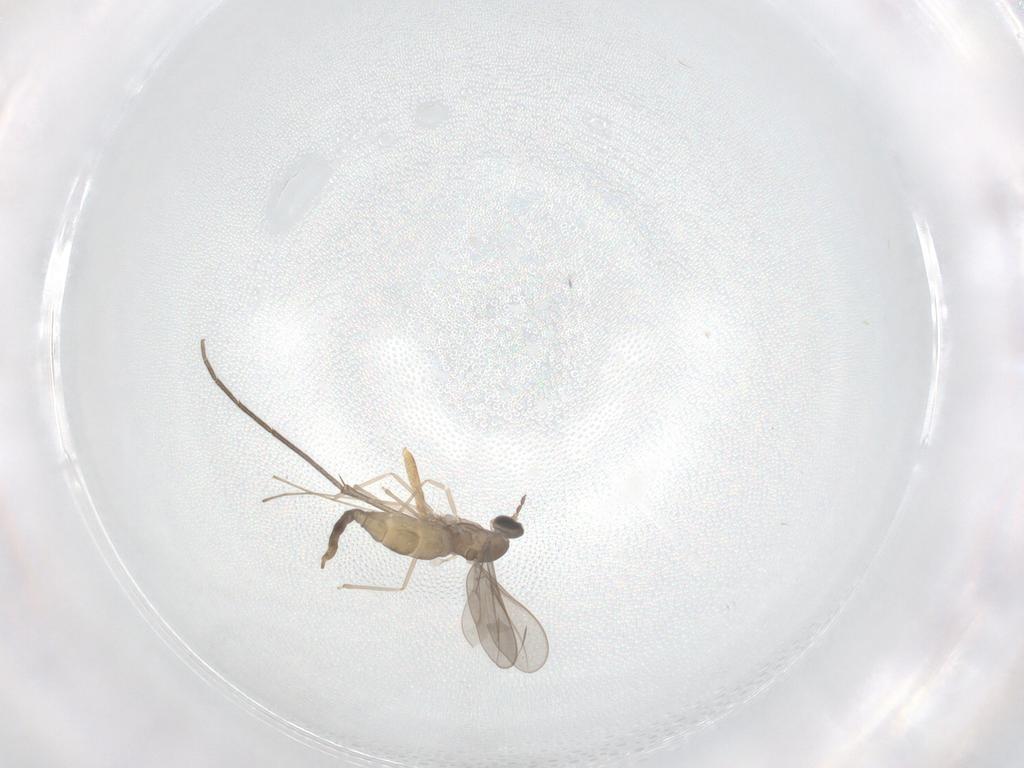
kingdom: Animalia
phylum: Arthropoda
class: Insecta
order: Diptera
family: Mycetophilidae
